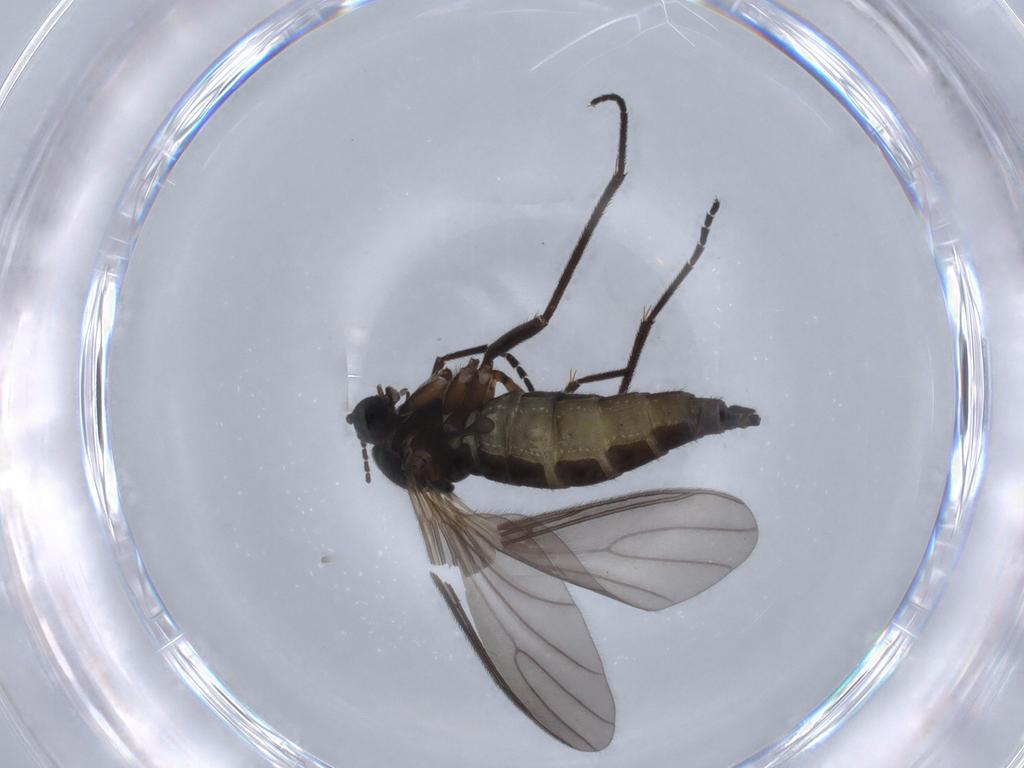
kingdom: Animalia
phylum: Arthropoda
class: Insecta
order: Diptera
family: Sciaridae
